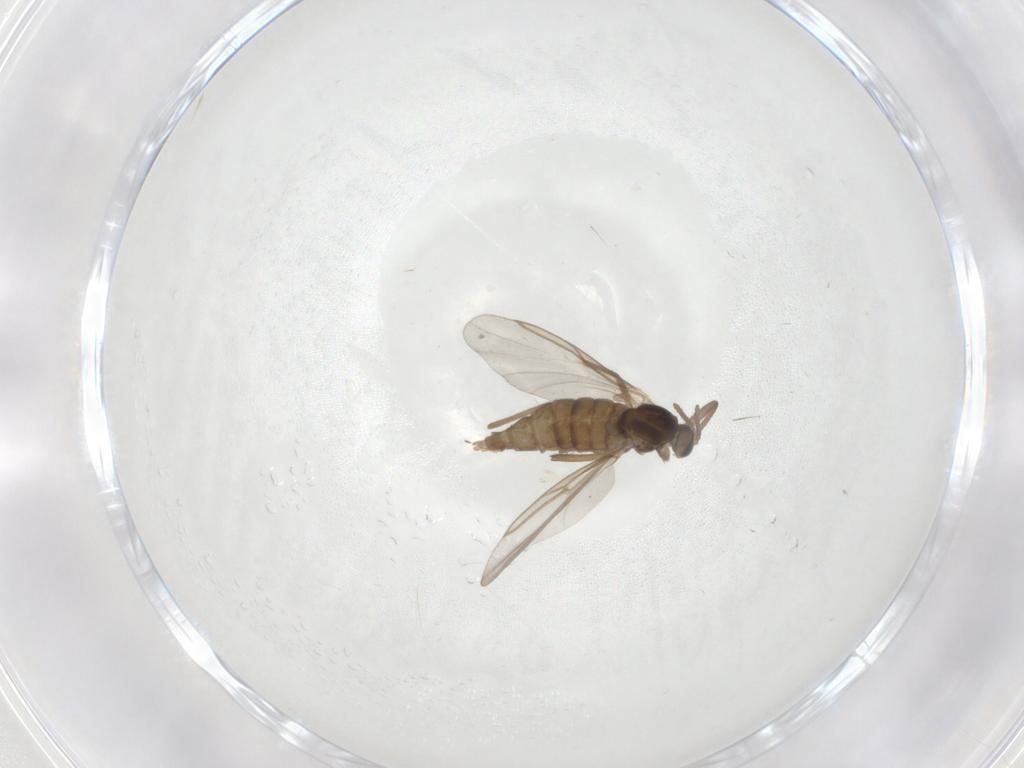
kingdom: Animalia
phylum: Arthropoda
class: Insecta
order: Diptera
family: Cecidomyiidae
